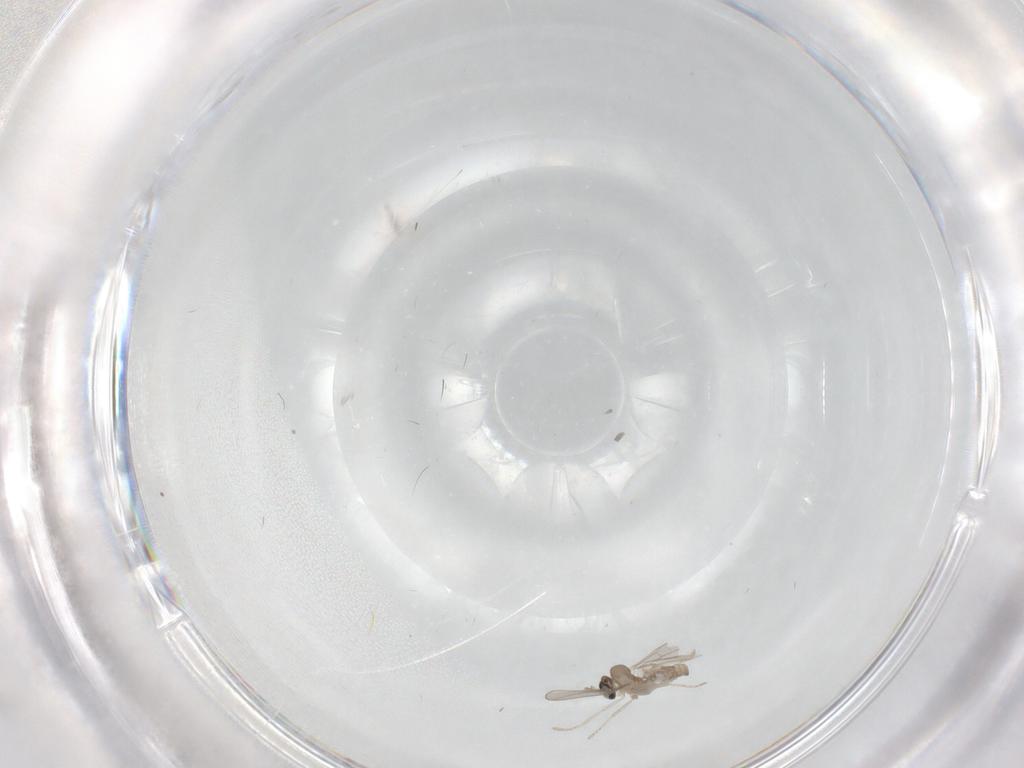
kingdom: Animalia
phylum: Arthropoda
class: Insecta
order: Diptera
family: Cecidomyiidae
